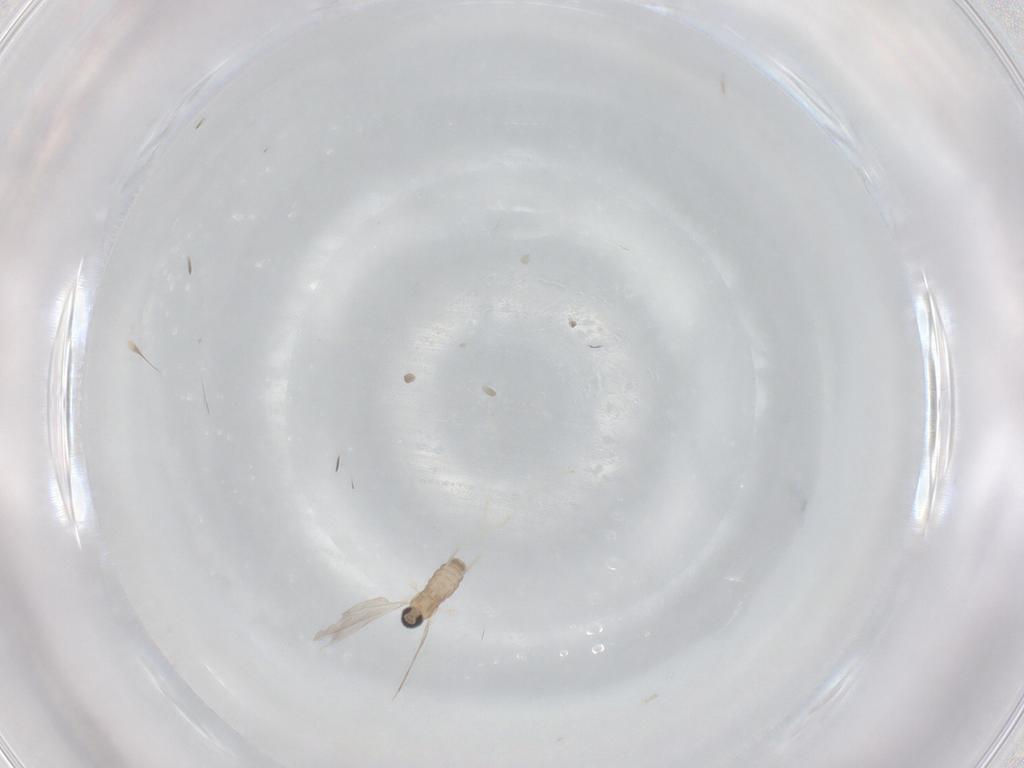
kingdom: Animalia
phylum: Arthropoda
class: Insecta
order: Diptera
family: Cecidomyiidae
